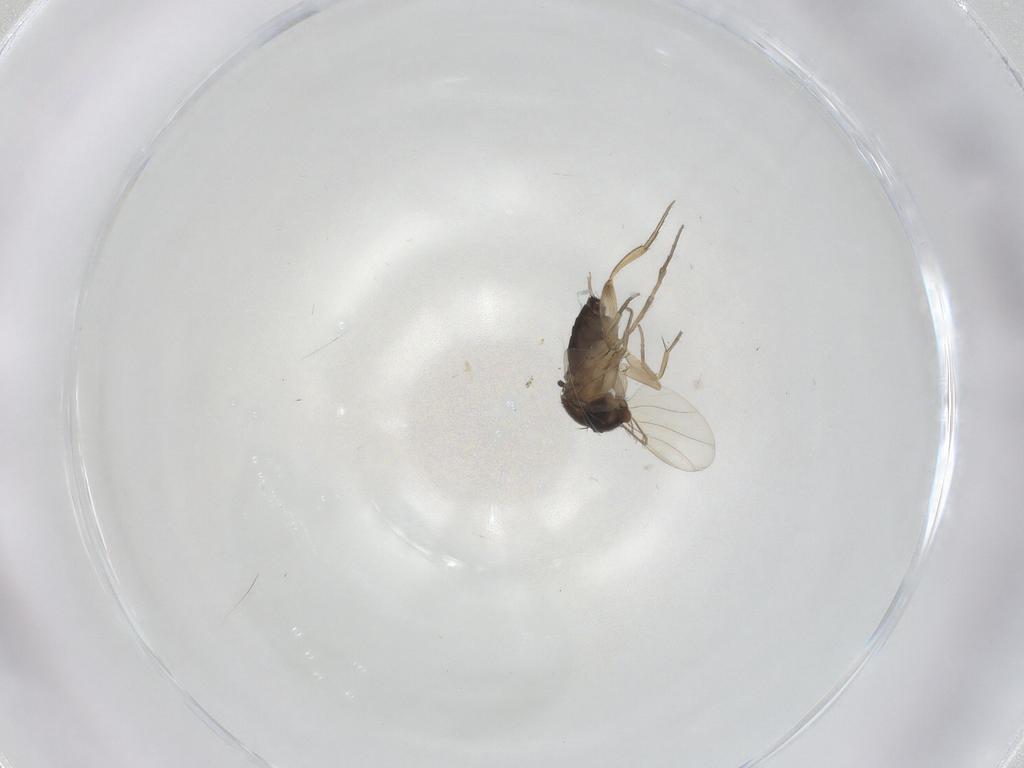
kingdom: Animalia
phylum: Arthropoda
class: Insecta
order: Diptera
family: Phoridae
